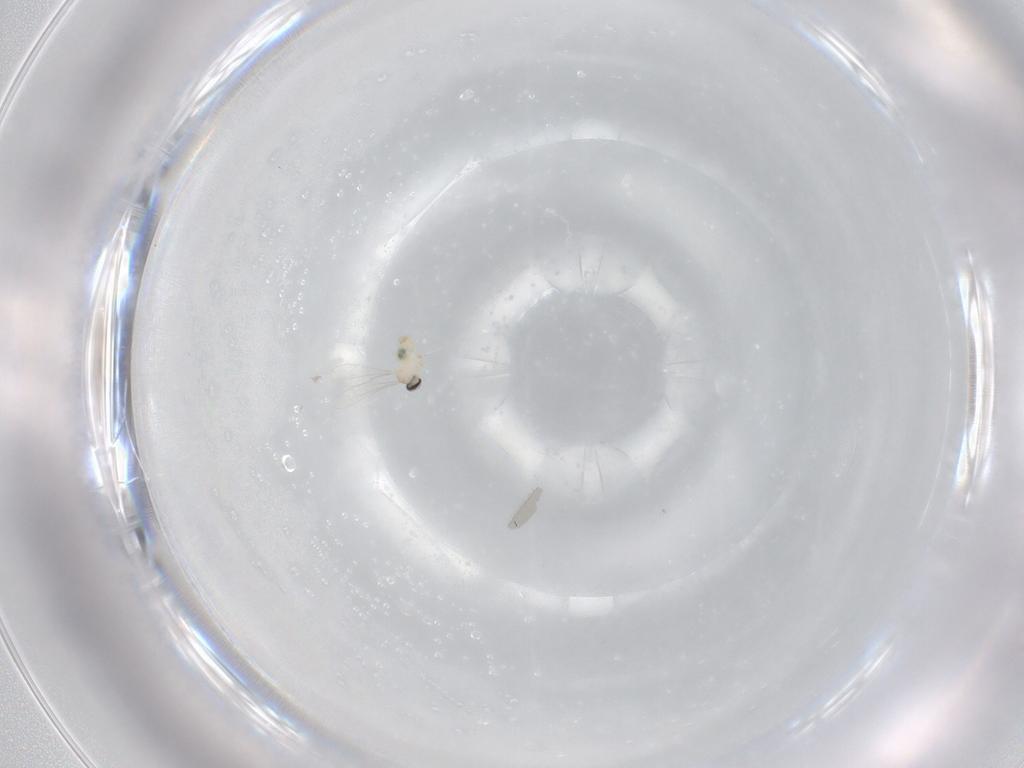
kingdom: Animalia
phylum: Arthropoda
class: Insecta
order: Diptera
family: Cecidomyiidae
